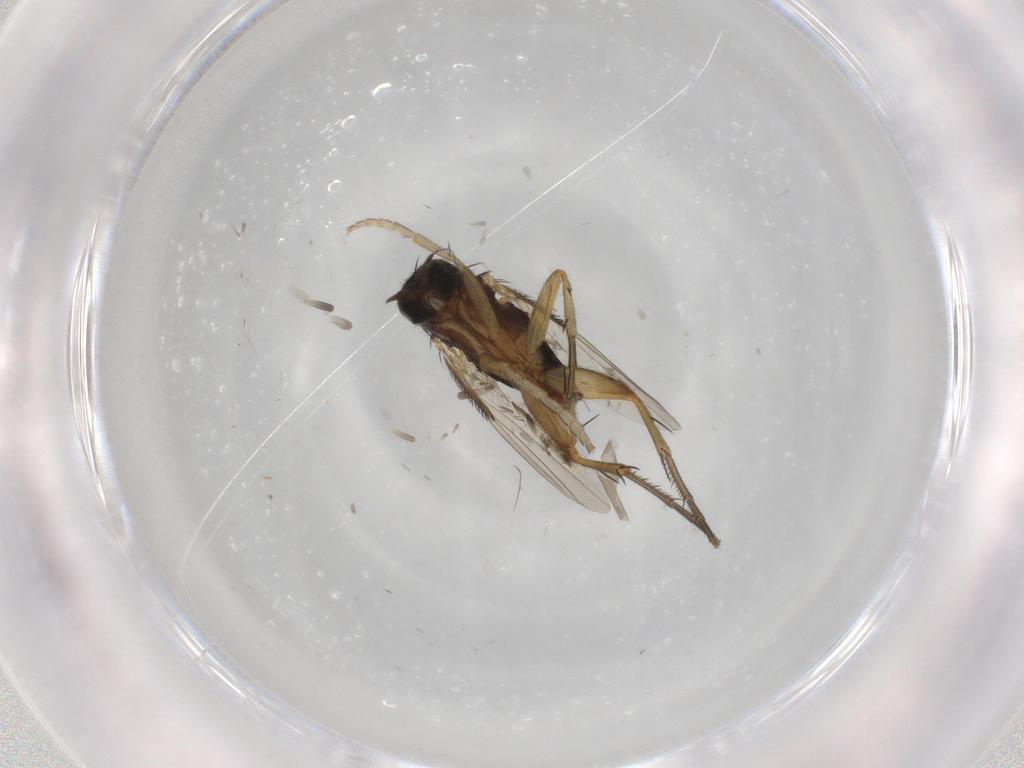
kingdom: Animalia
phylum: Arthropoda
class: Insecta
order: Diptera
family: Phoridae
